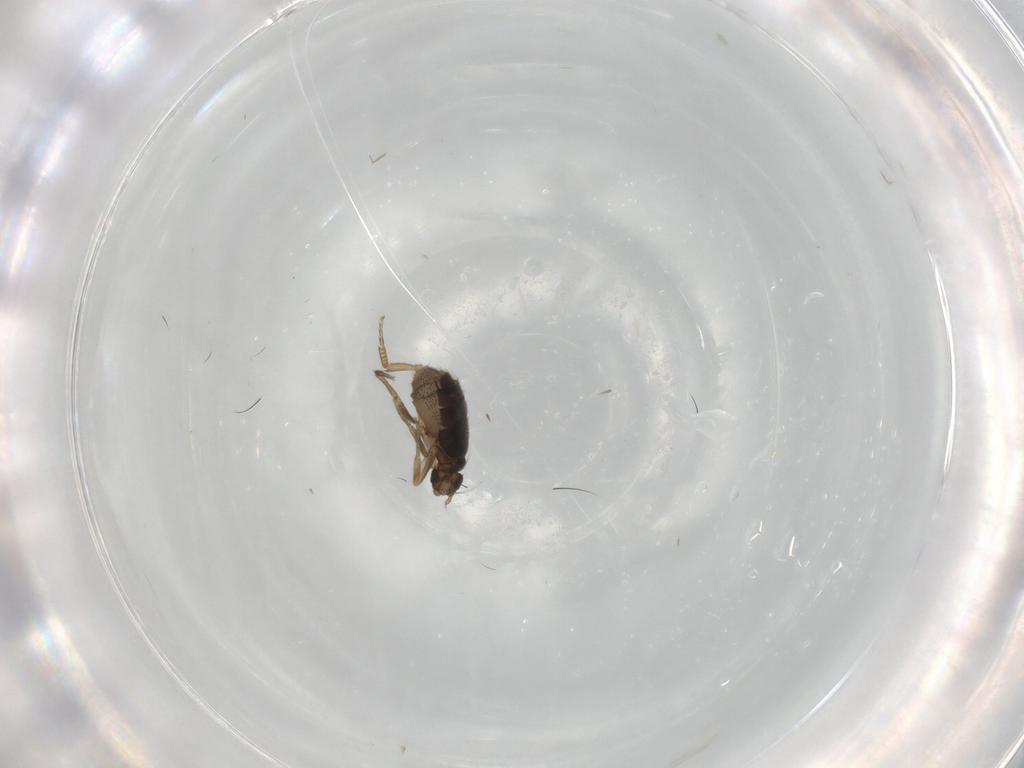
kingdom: Animalia
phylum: Arthropoda
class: Insecta
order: Diptera
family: Phoridae
